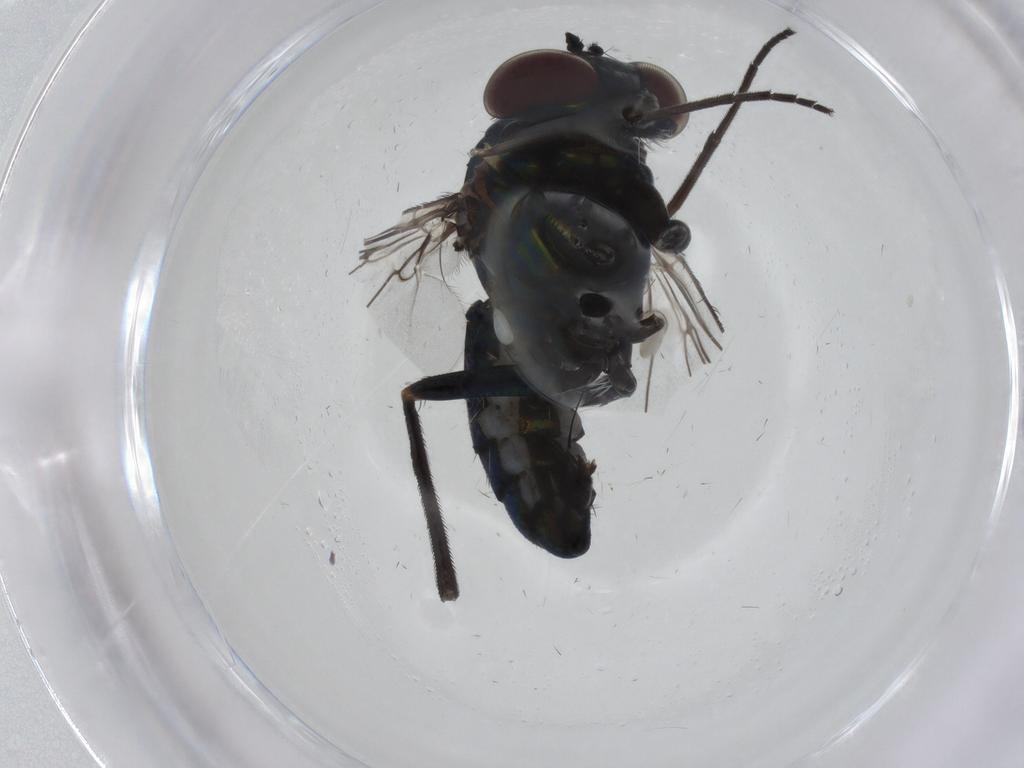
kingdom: Animalia
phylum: Arthropoda
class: Insecta
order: Diptera
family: Dolichopodidae
